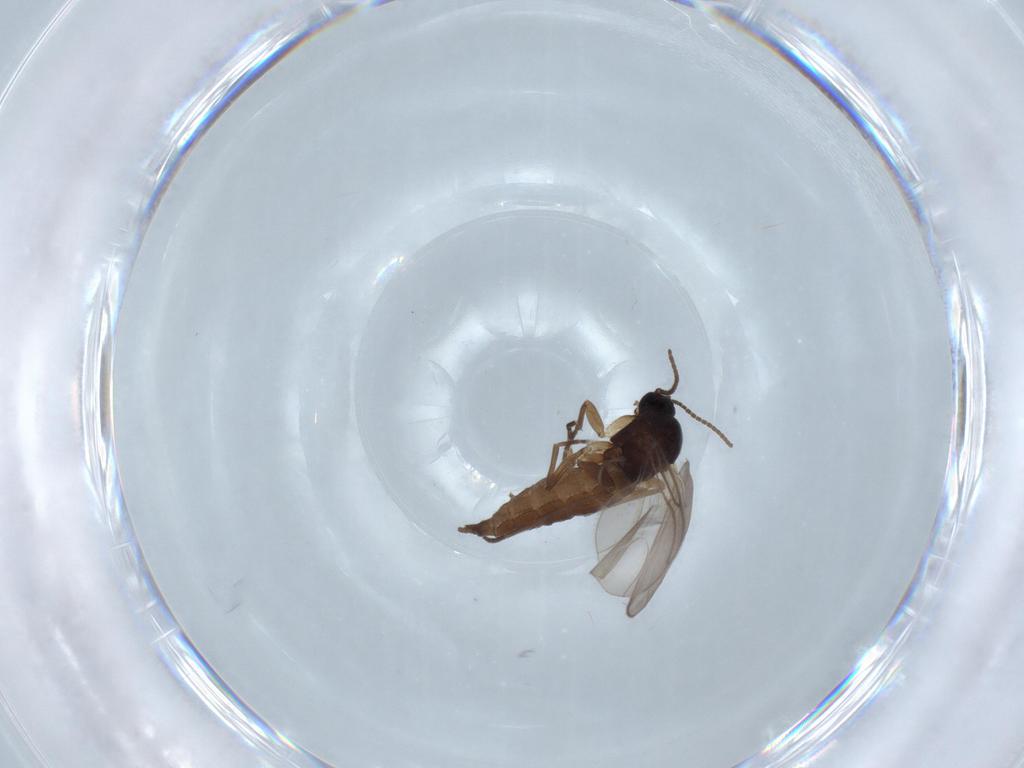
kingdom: Animalia
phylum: Arthropoda
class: Insecta
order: Diptera
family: Sciaridae
